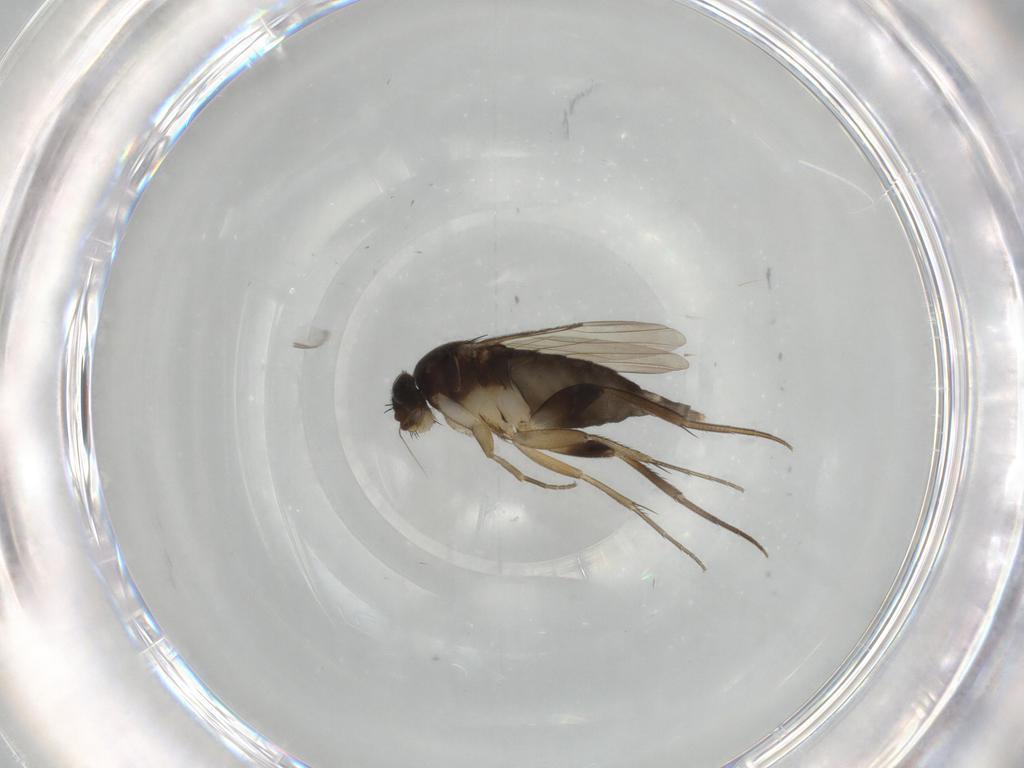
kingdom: Animalia
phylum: Arthropoda
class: Insecta
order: Diptera
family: Phoridae
